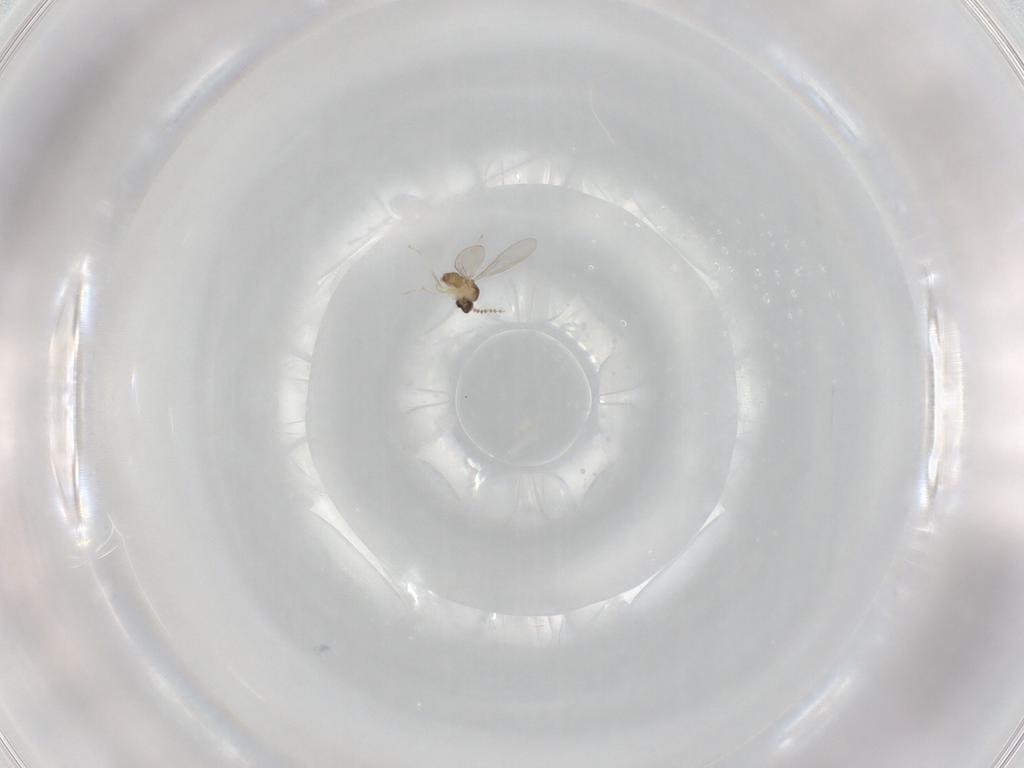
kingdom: Animalia
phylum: Arthropoda
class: Insecta
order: Diptera
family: Cecidomyiidae
